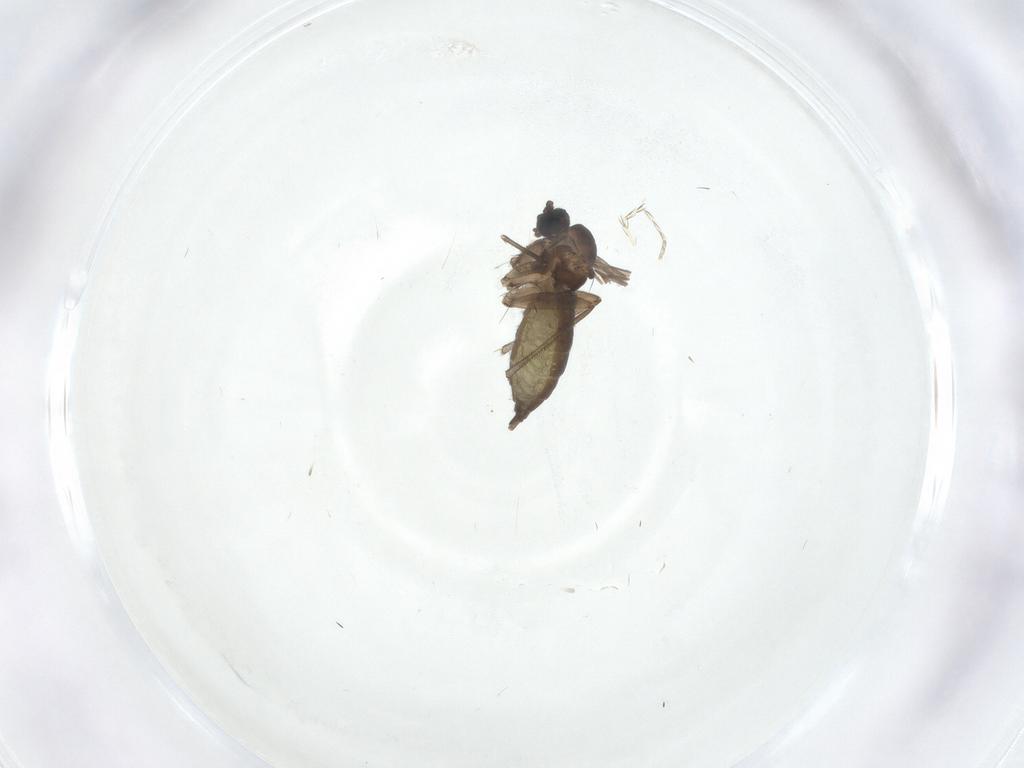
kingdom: Animalia
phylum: Arthropoda
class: Insecta
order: Diptera
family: Sciaridae
